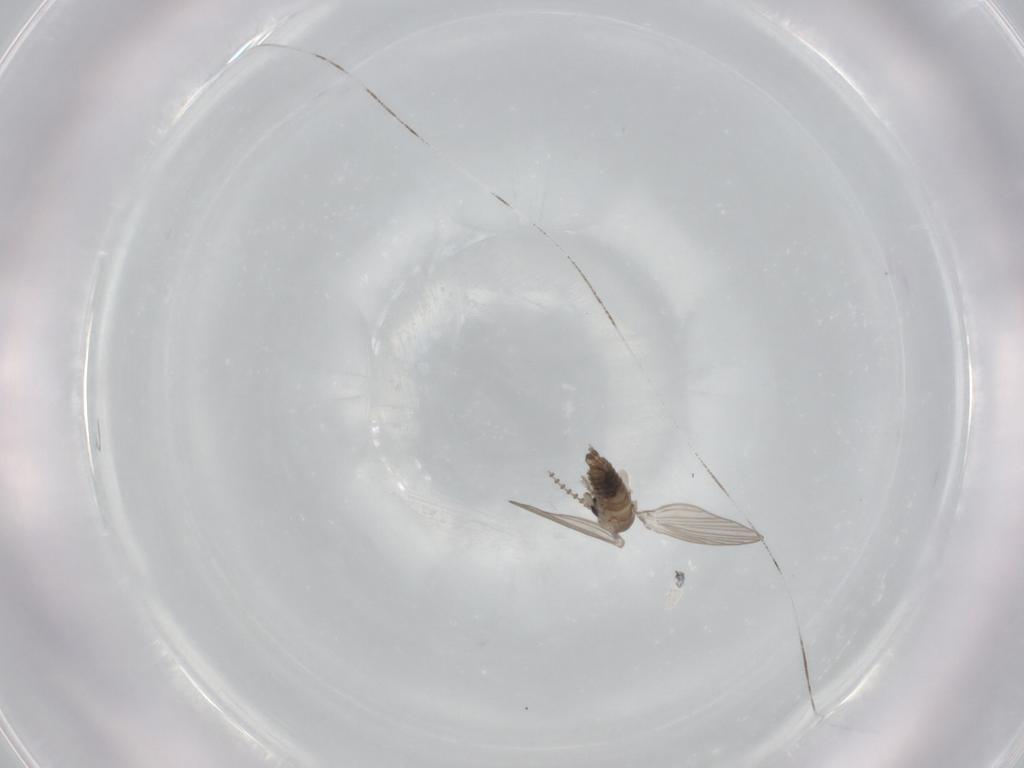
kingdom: Animalia
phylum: Arthropoda
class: Insecta
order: Diptera
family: Psychodidae
